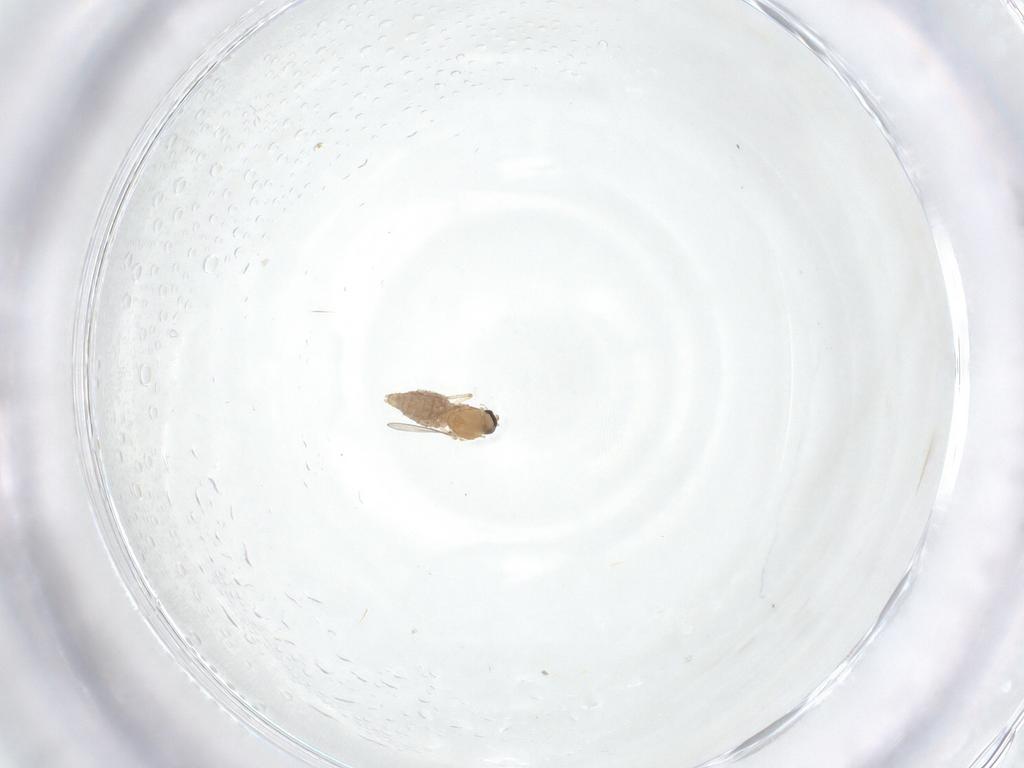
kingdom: Animalia
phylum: Arthropoda
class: Insecta
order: Diptera
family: Ceratopogonidae
